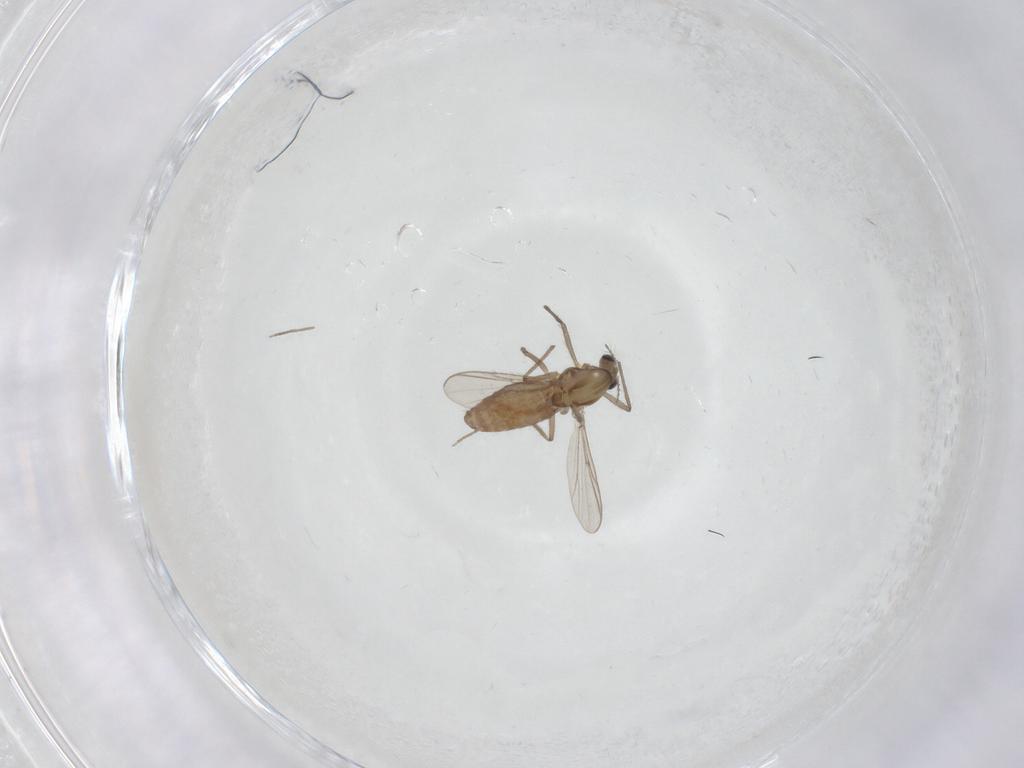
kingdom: Animalia
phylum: Arthropoda
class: Insecta
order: Diptera
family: Chironomidae
